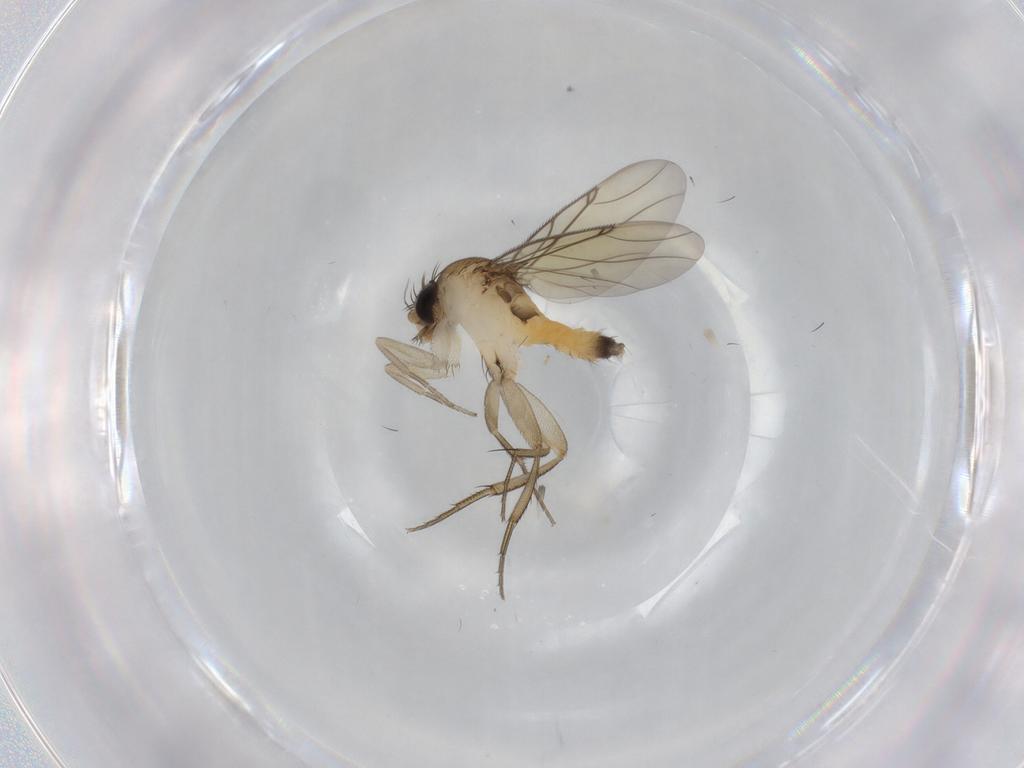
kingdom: Animalia
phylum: Arthropoda
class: Insecta
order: Diptera
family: Phoridae
